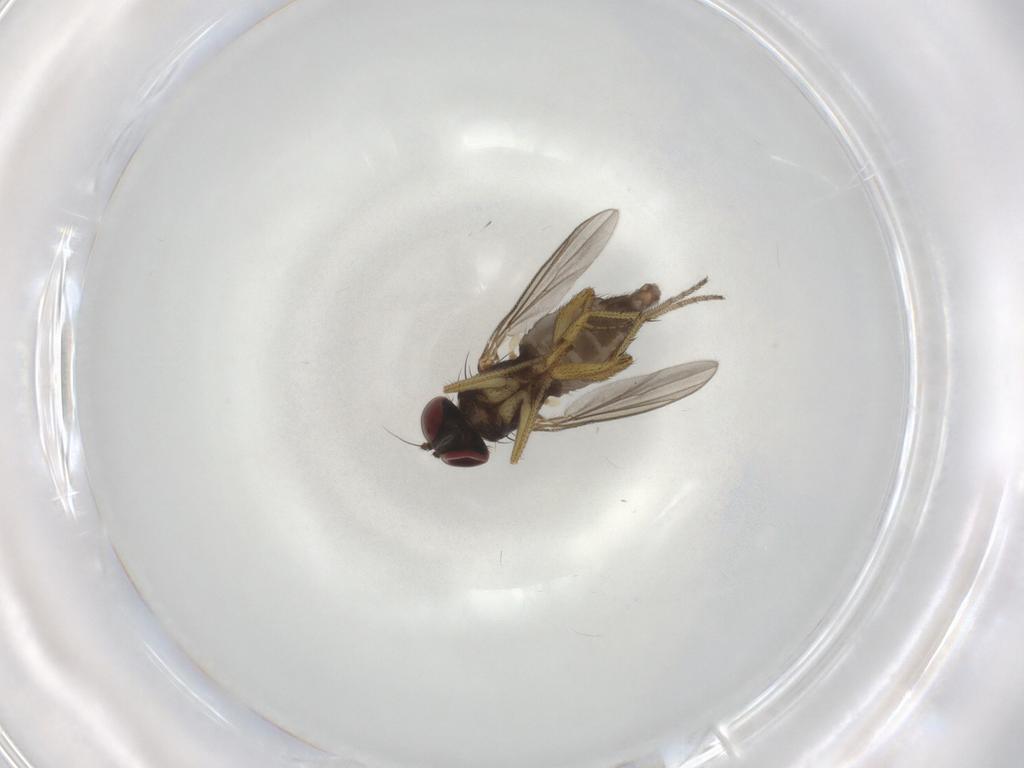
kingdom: Animalia
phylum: Arthropoda
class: Insecta
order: Diptera
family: Dolichopodidae
